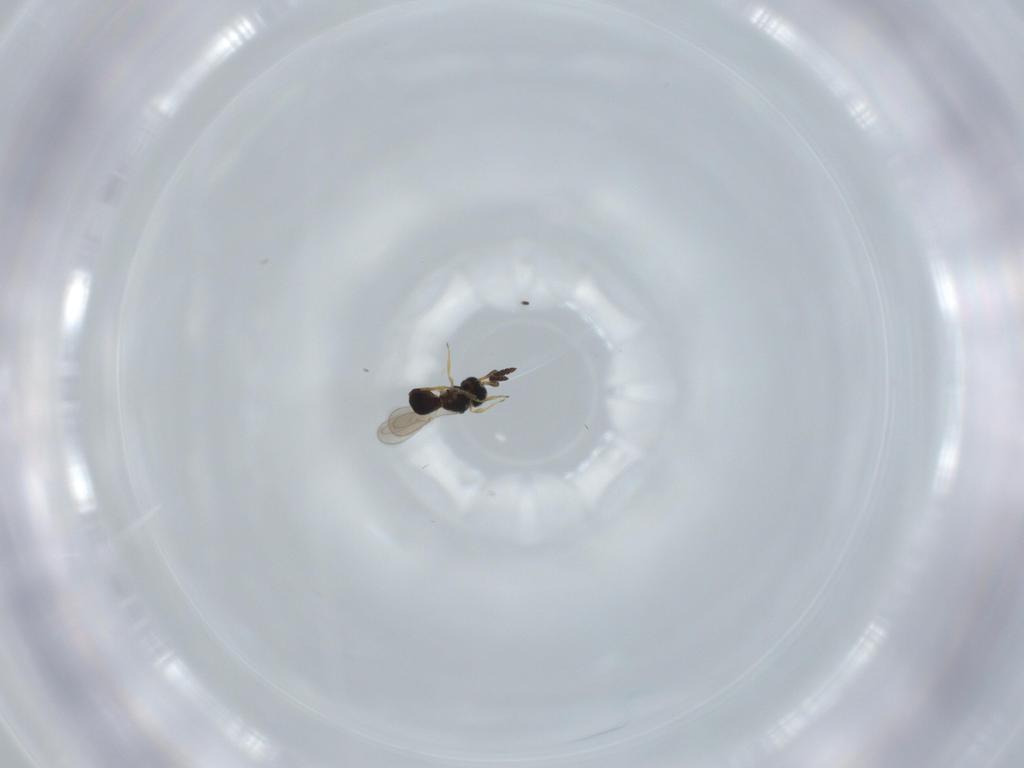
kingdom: Animalia
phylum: Arthropoda
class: Insecta
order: Hymenoptera
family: Scelionidae
